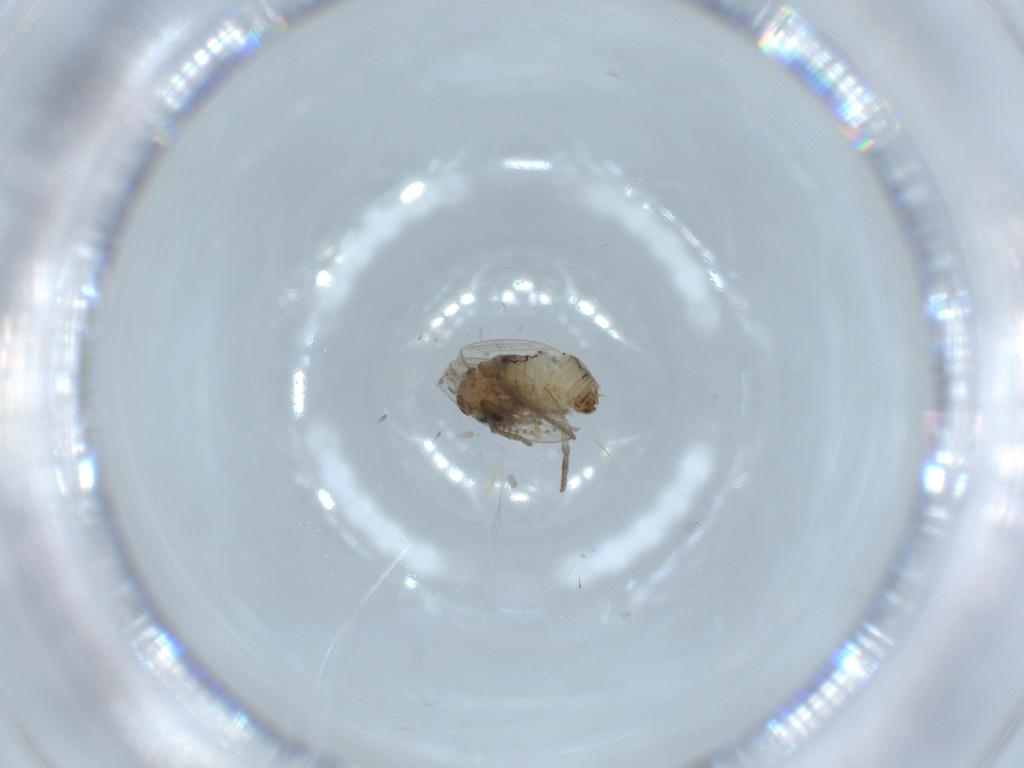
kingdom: Animalia
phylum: Arthropoda
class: Insecta
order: Diptera
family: Psychodidae
